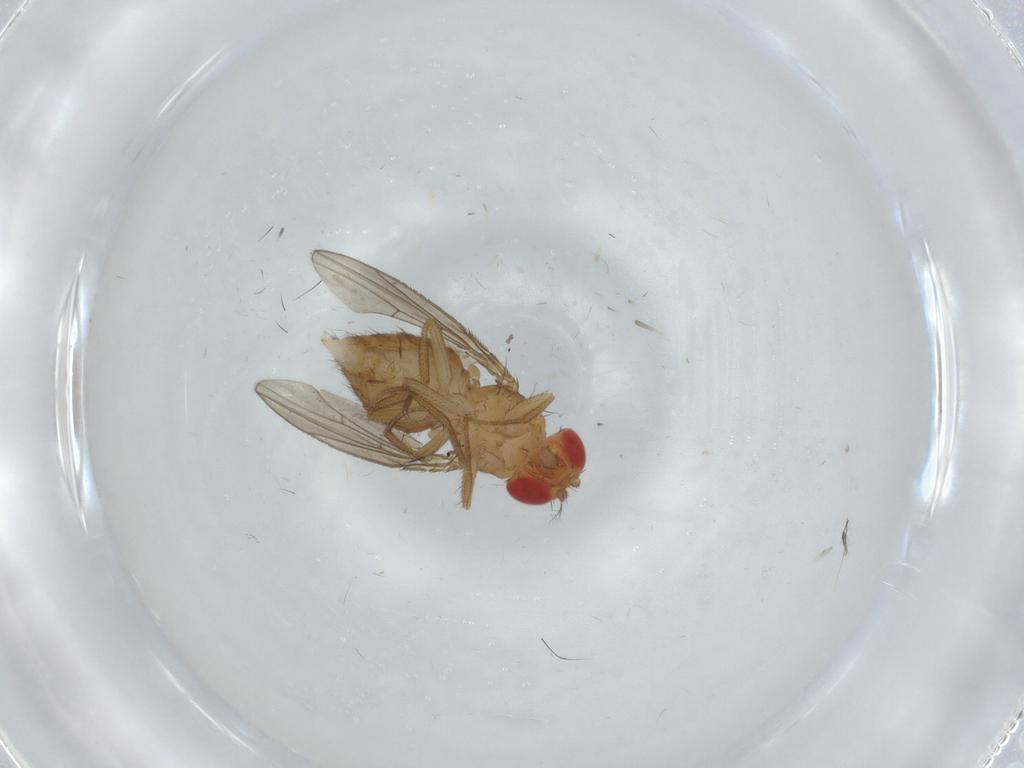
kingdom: Animalia
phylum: Arthropoda
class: Insecta
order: Diptera
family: Drosophilidae
